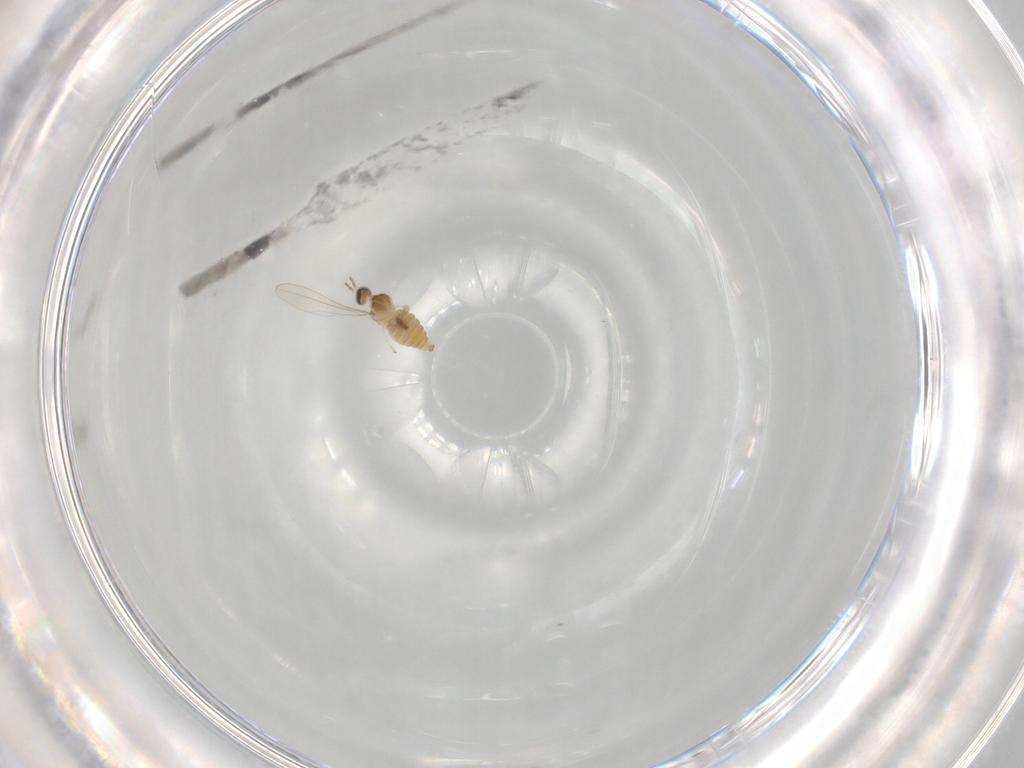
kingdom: Animalia
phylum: Arthropoda
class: Insecta
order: Diptera
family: Cecidomyiidae
